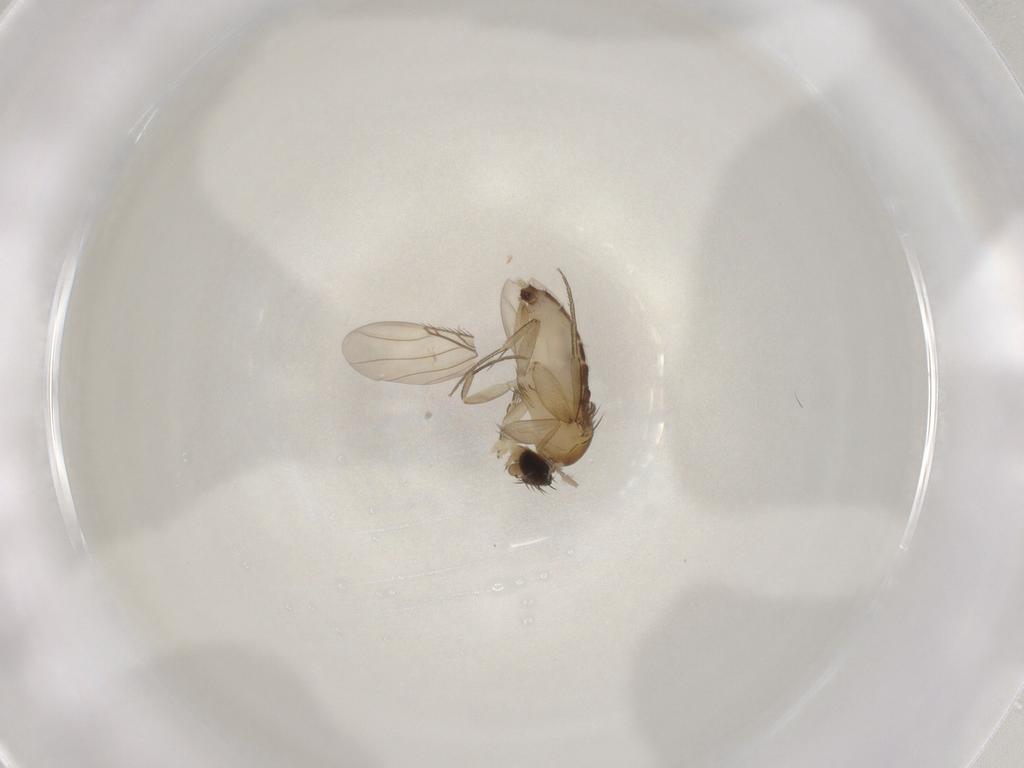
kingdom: Animalia
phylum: Arthropoda
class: Insecta
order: Diptera
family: Phoridae
